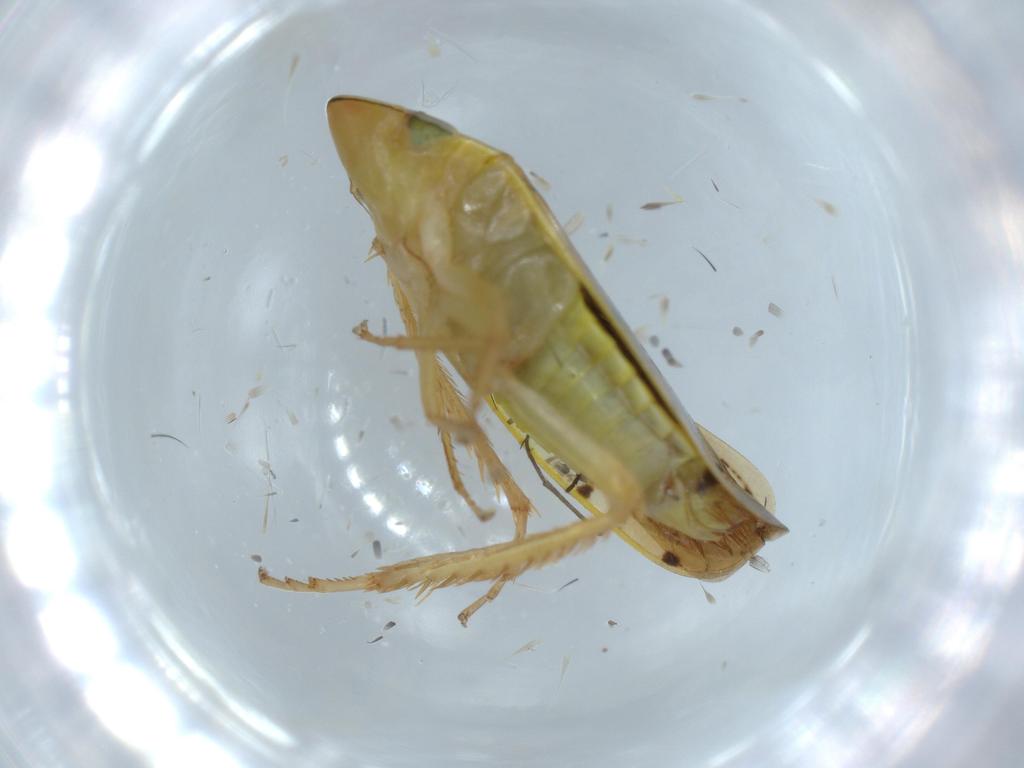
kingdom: Animalia
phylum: Arthropoda
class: Insecta
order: Hemiptera
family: Cicadellidae
